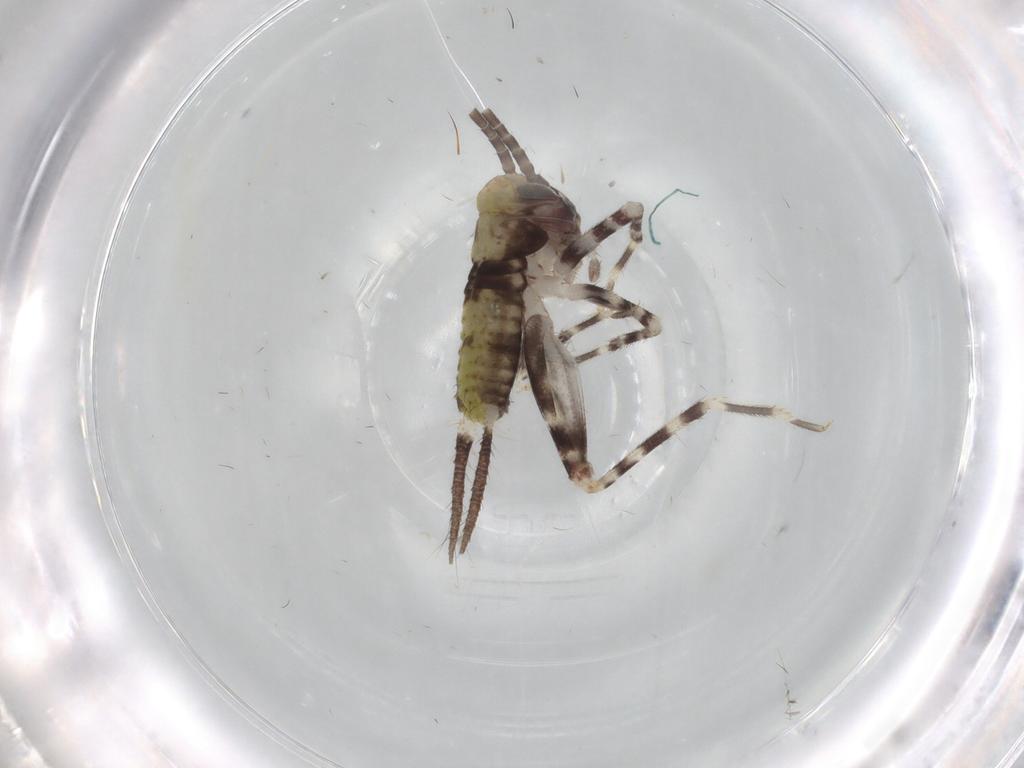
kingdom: Animalia
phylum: Arthropoda
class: Insecta
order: Orthoptera
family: Gryllidae
